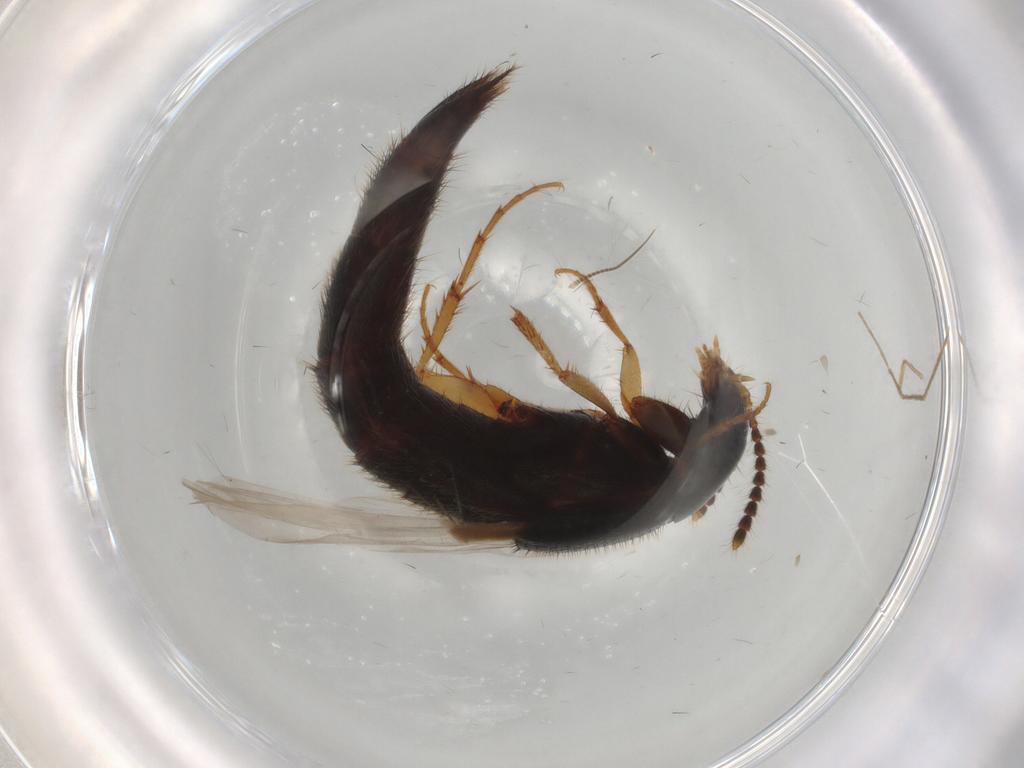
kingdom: Animalia
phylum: Arthropoda
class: Insecta
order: Coleoptera
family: Staphylinidae
